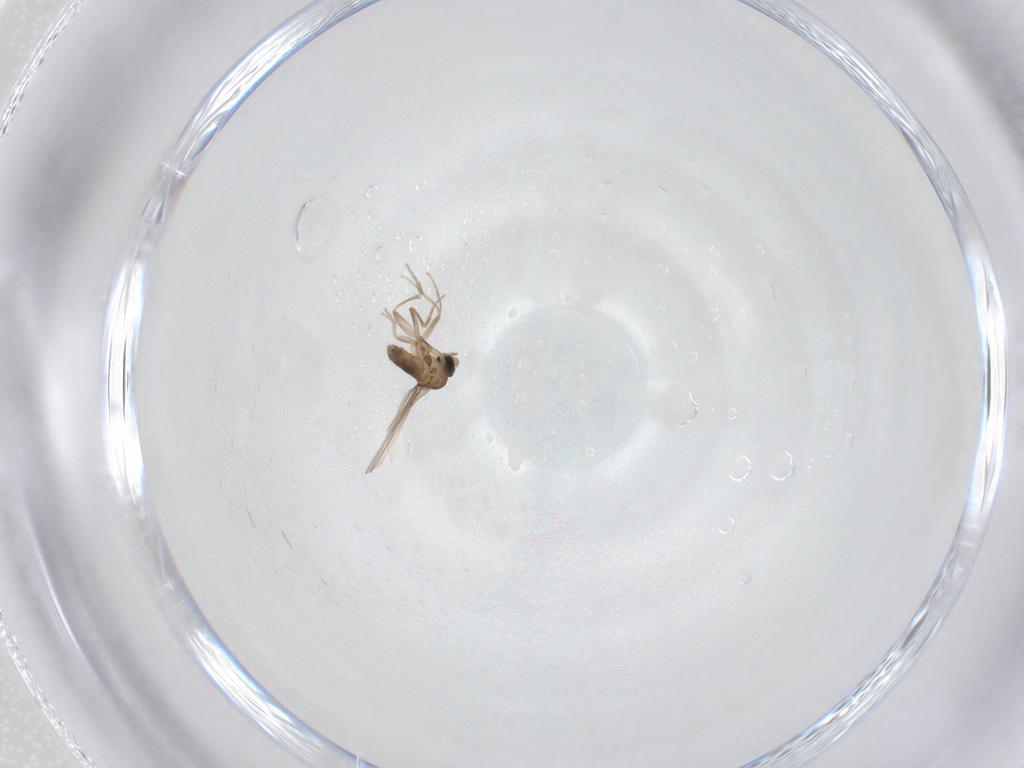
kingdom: Animalia
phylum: Arthropoda
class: Insecta
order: Diptera
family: Cecidomyiidae
